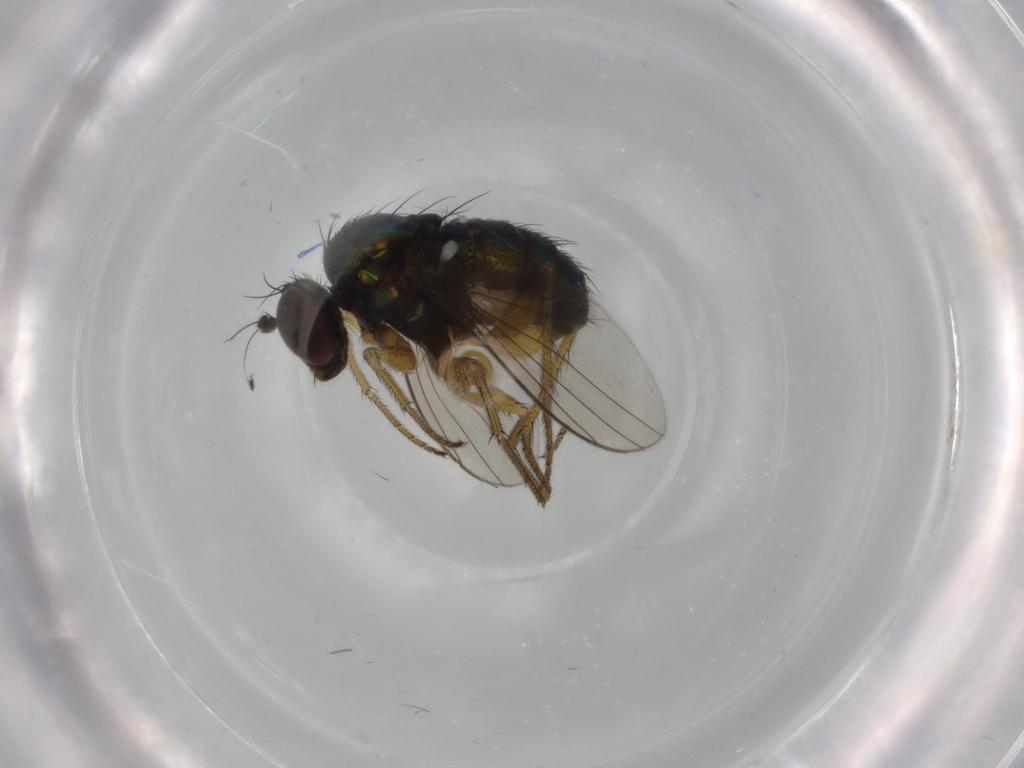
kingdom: Animalia
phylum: Arthropoda
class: Insecta
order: Diptera
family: Dolichopodidae
